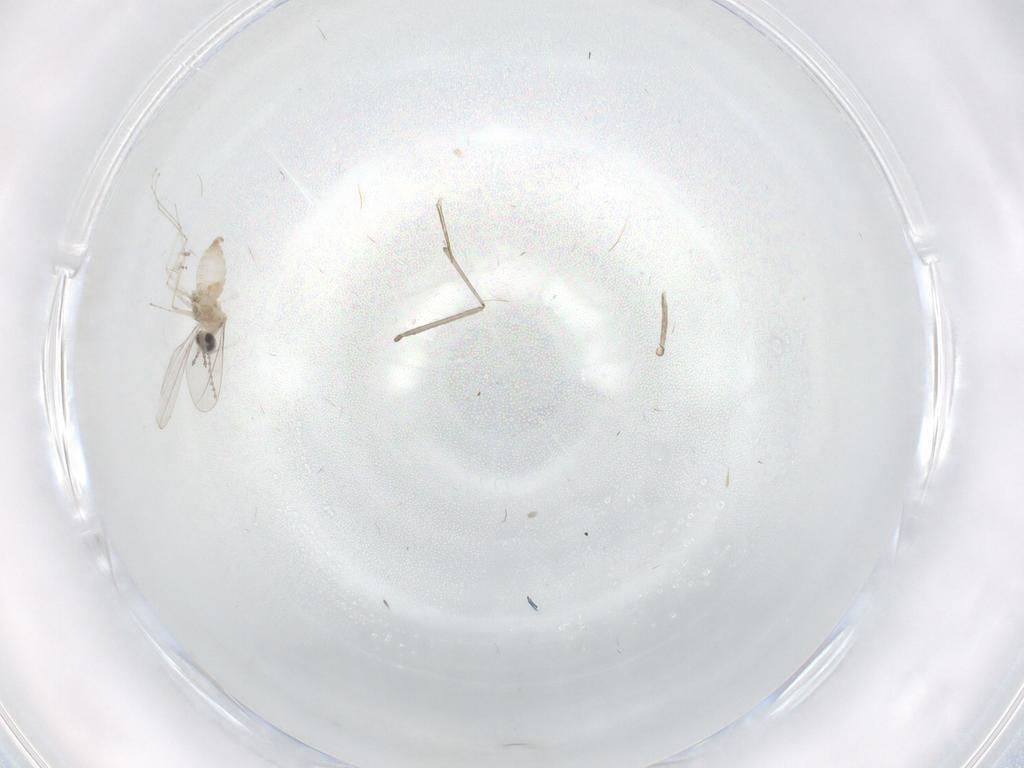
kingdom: Animalia
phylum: Arthropoda
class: Insecta
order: Diptera
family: Cecidomyiidae
